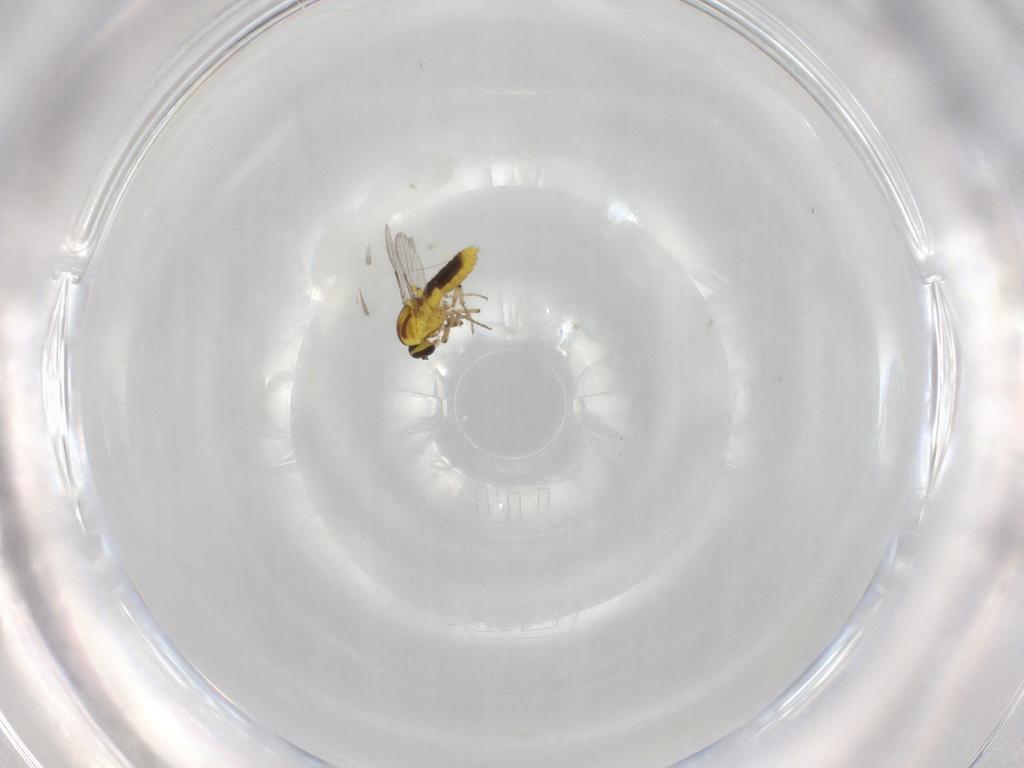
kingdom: Animalia
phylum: Arthropoda
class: Insecta
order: Diptera
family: Ceratopogonidae
